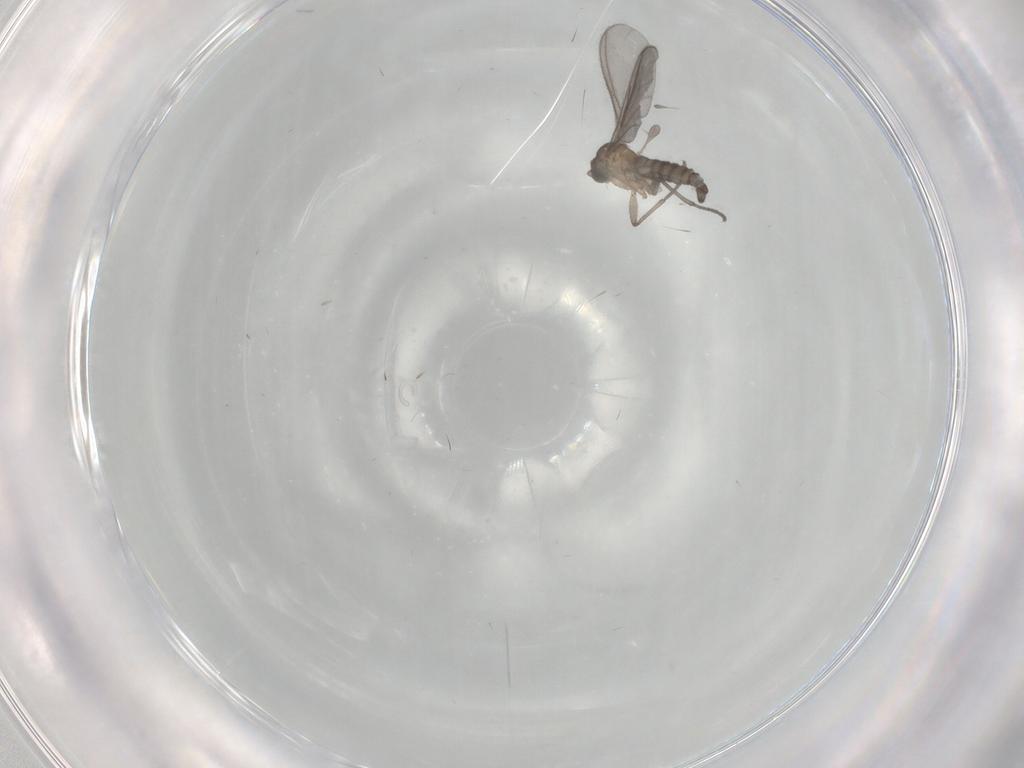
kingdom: Animalia
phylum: Arthropoda
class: Insecta
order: Diptera
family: Sciaridae
